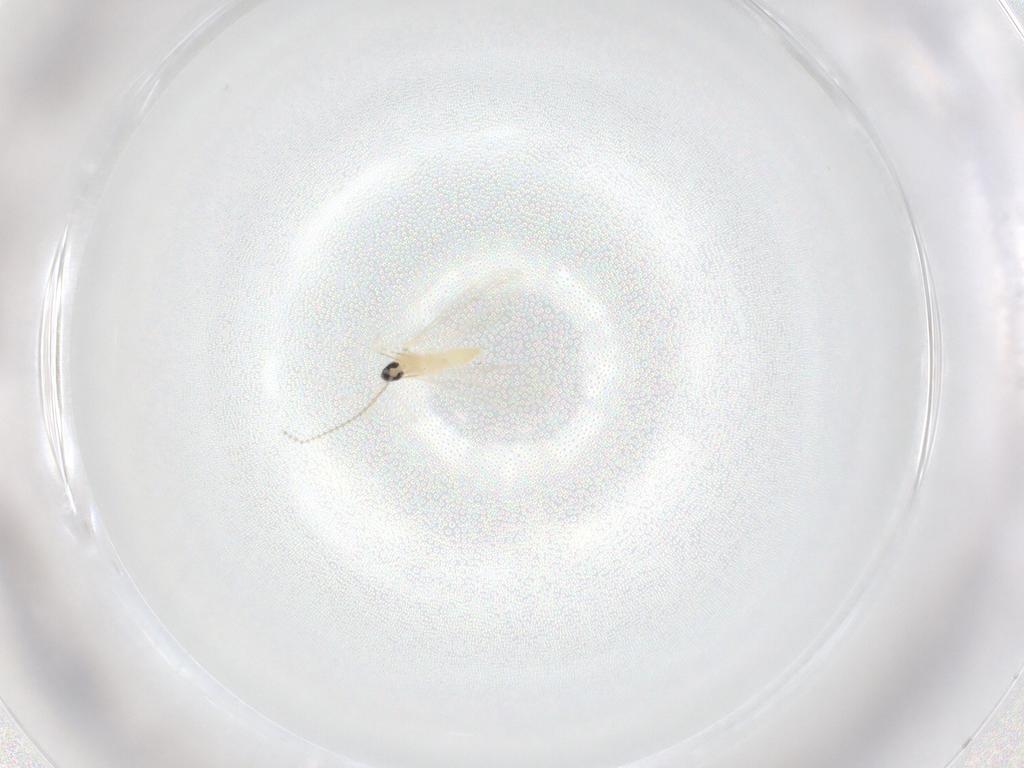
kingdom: Animalia
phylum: Arthropoda
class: Insecta
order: Diptera
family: Cecidomyiidae
